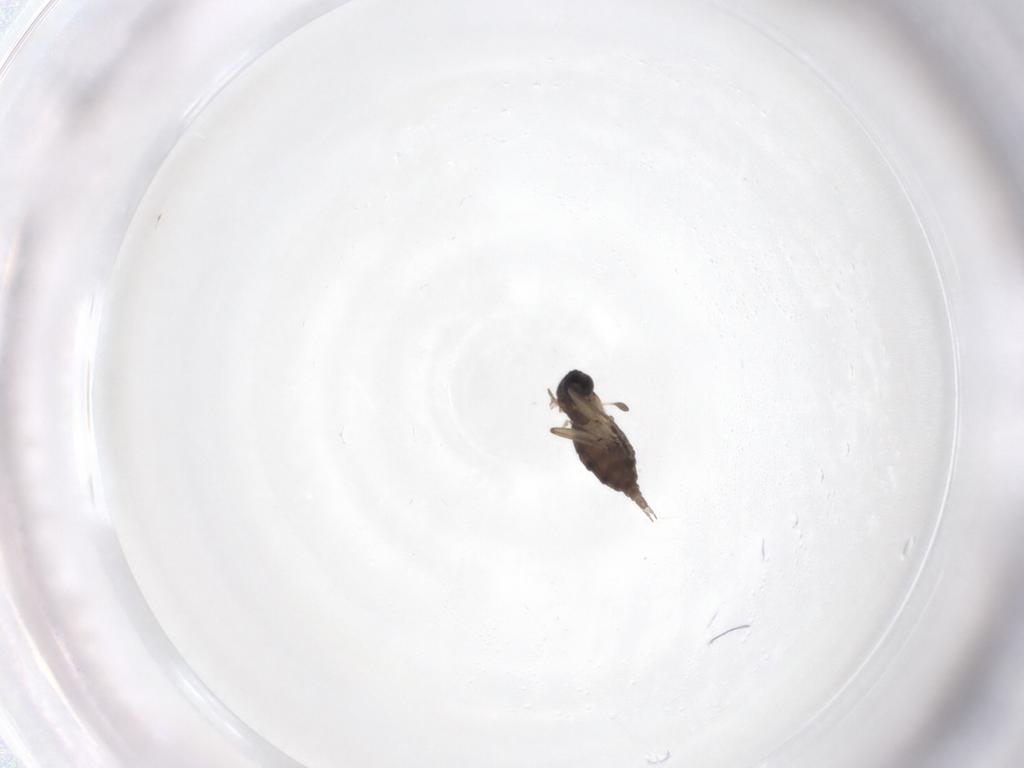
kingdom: Animalia
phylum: Arthropoda
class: Insecta
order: Diptera
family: Sciaridae
